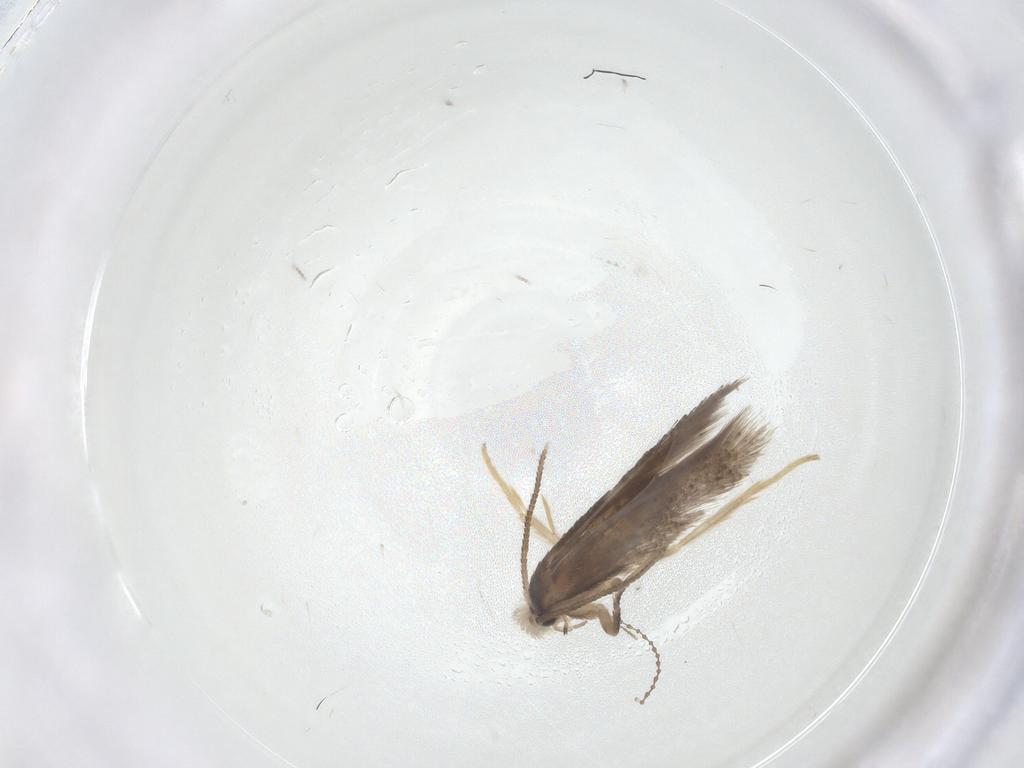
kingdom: Animalia
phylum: Arthropoda
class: Insecta
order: Lepidoptera
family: Nepticulidae
